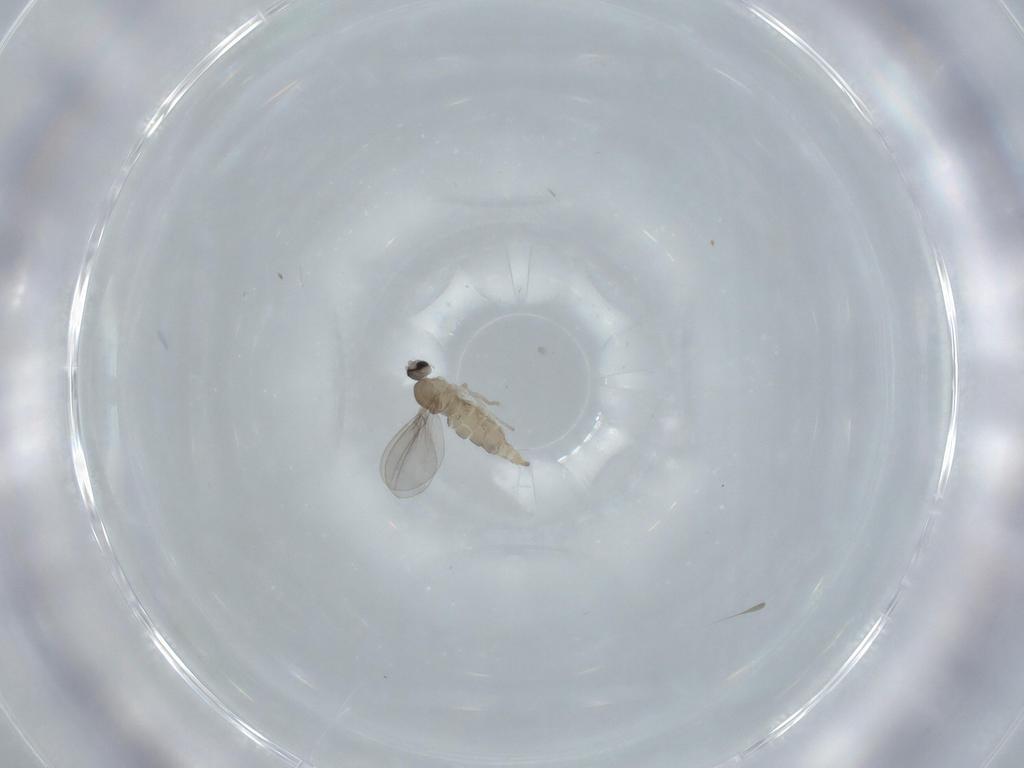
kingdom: Animalia
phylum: Arthropoda
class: Insecta
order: Diptera
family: Cecidomyiidae
